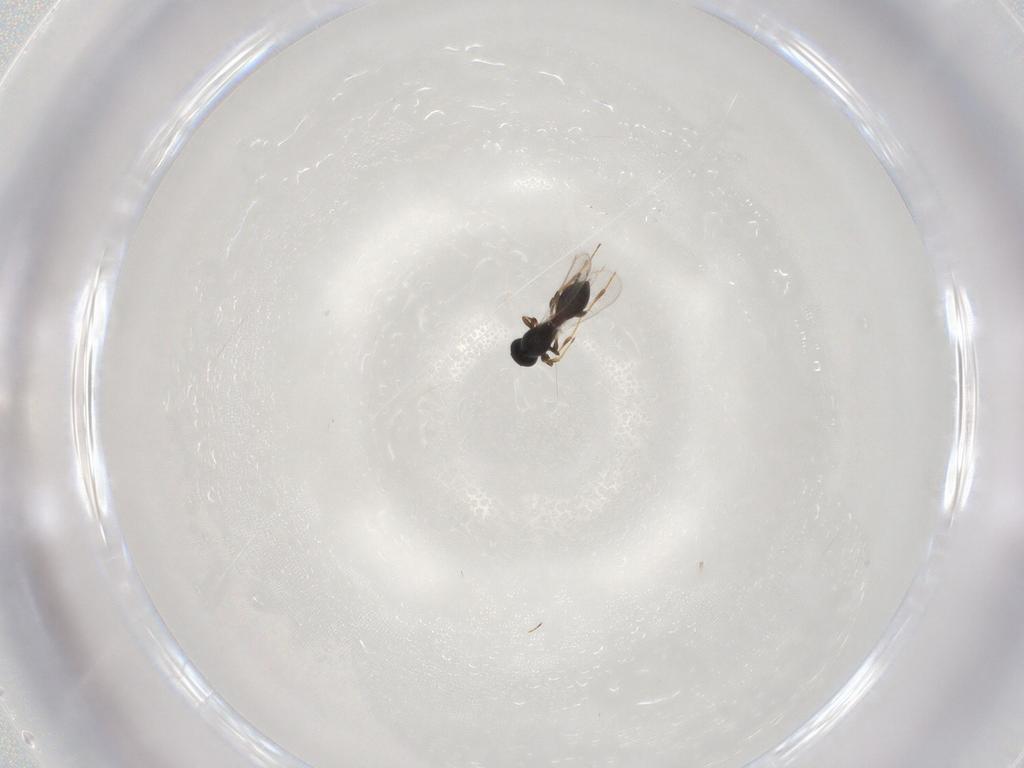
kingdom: Animalia
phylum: Arthropoda
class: Insecta
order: Hymenoptera
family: Platygastridae
